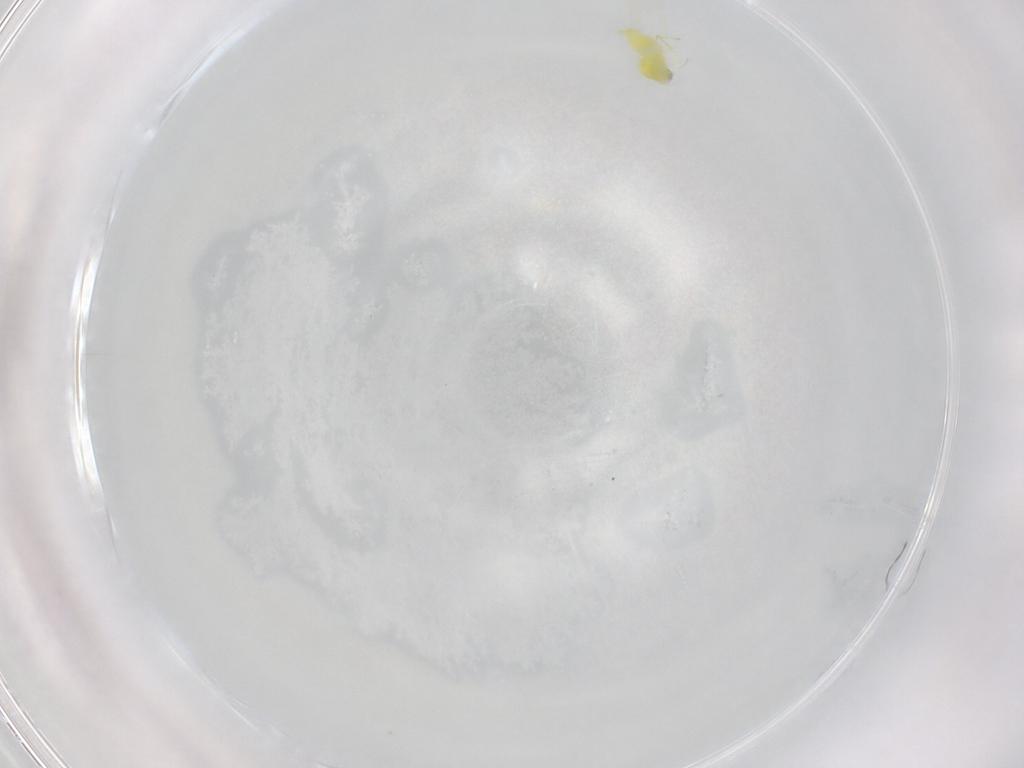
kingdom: Animalia
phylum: Arthropoda
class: Insecta
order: Hemiptera
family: Aleyrodidae
